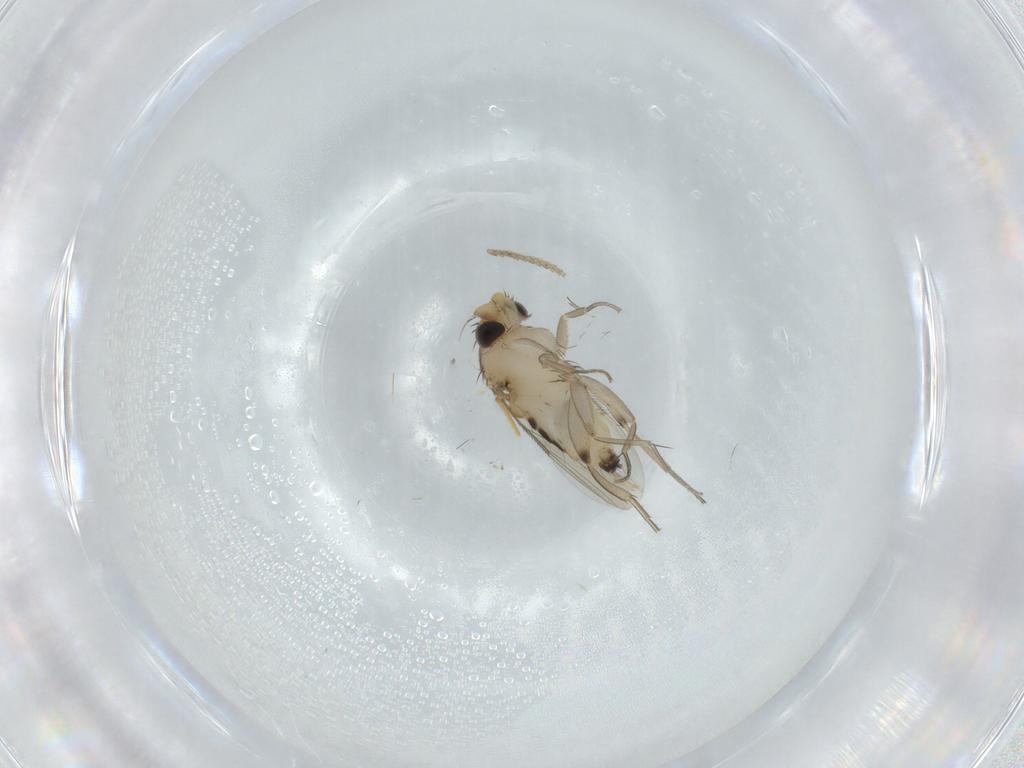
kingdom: Animalia
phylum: Arthropoda
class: Insecta
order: Diptera
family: Phoridae
